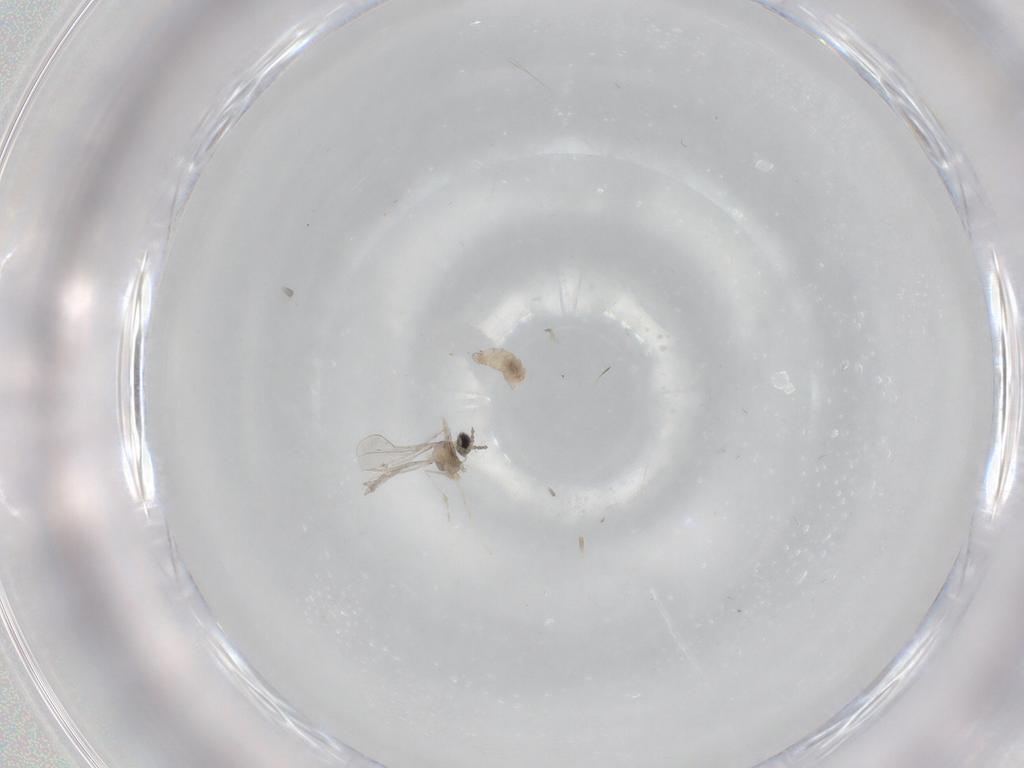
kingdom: Animalia
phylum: Arthropoda
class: Insecta
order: Diptera
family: Cecidomyiidae
